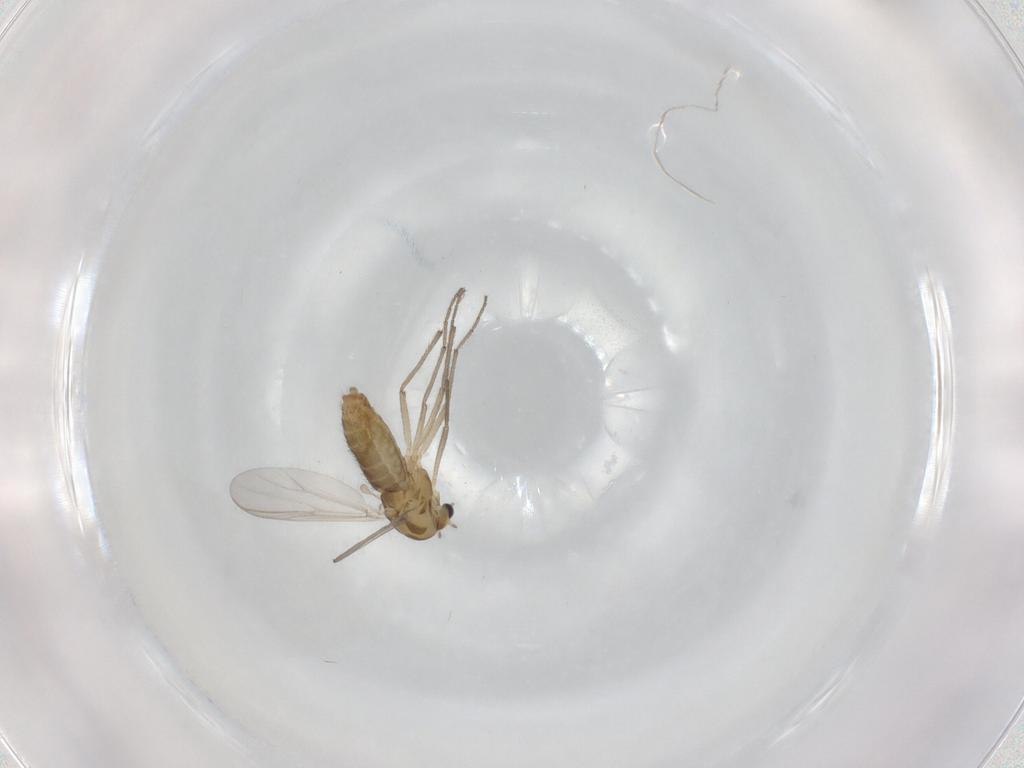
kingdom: Animalia
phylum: Arthropoda
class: Insecta
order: Diptera
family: Chironomidae
